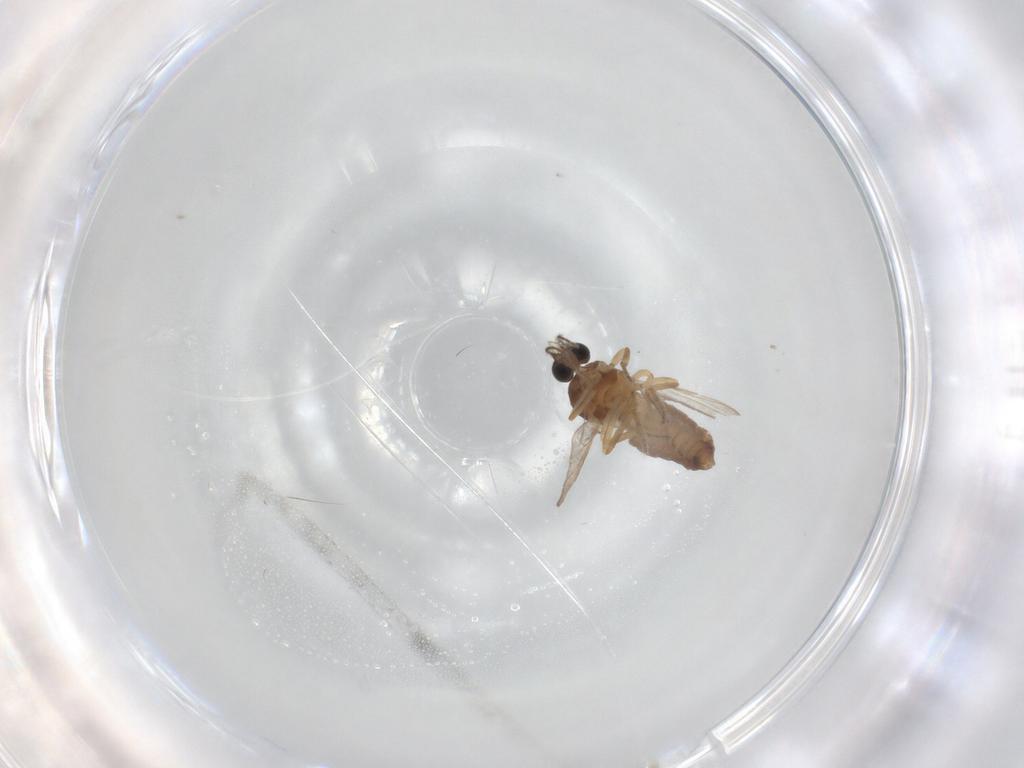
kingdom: Animalia
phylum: Arthropoda
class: Insecta
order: Diptera
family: Ceratopogonidae
